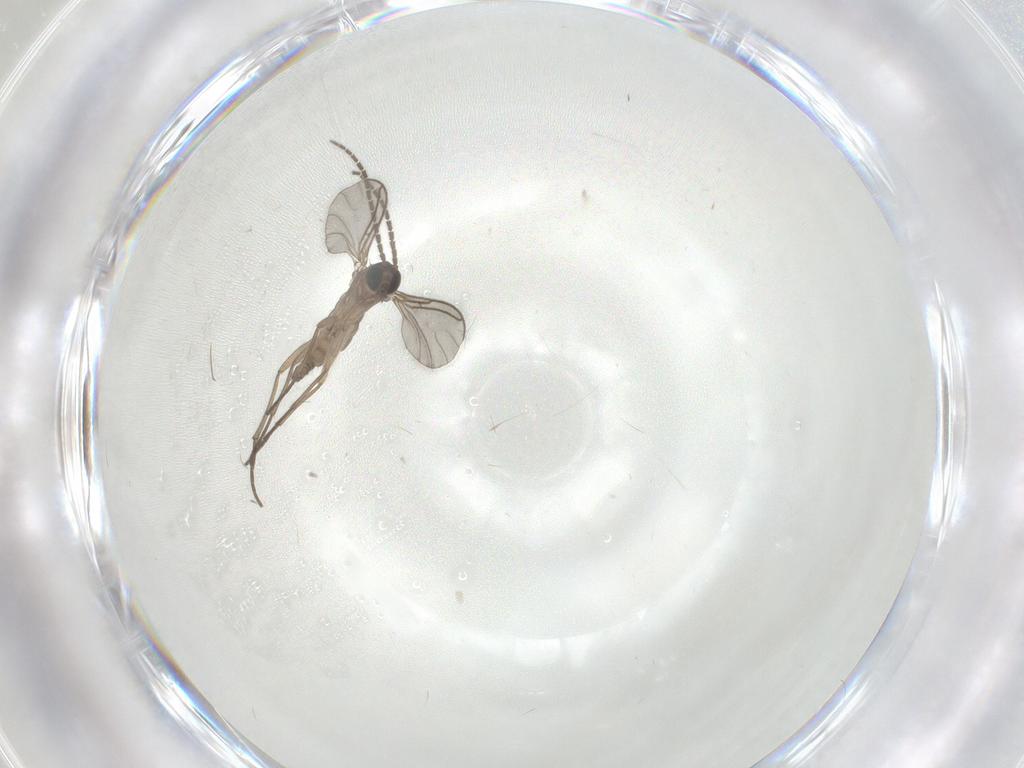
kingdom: Animalia
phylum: Arthropoda
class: Insecta
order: Diptera
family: Sciaridae
